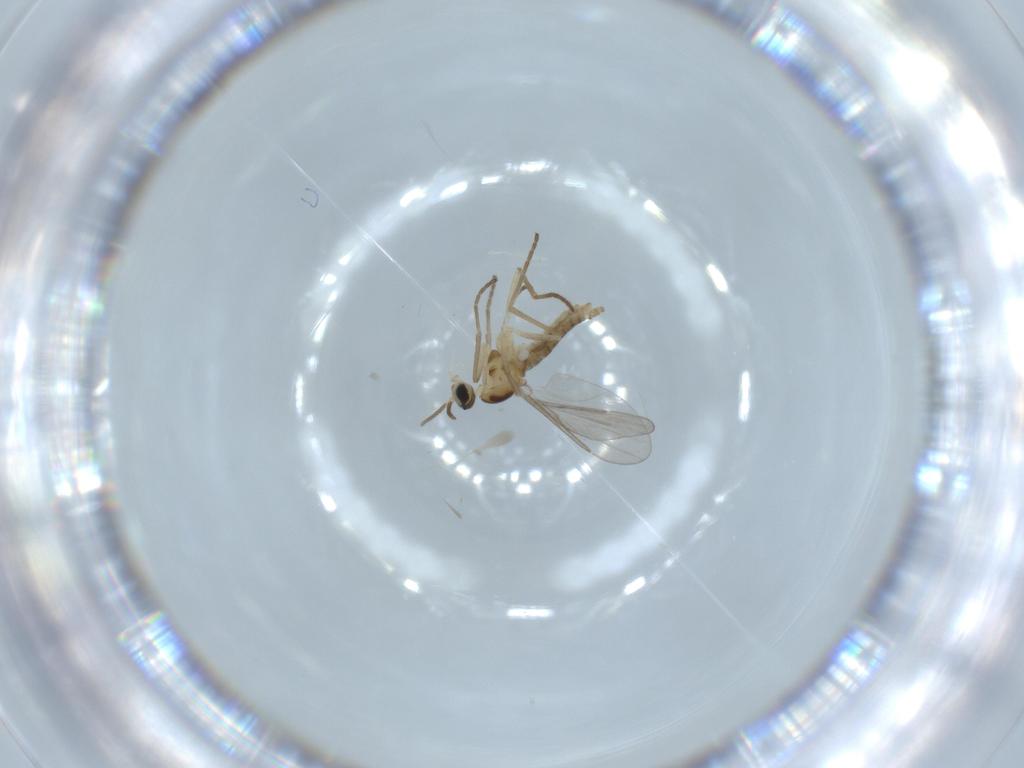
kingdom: Animalia
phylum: Arthropoda
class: Insecta
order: Diptera
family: Cecidomyiidae
